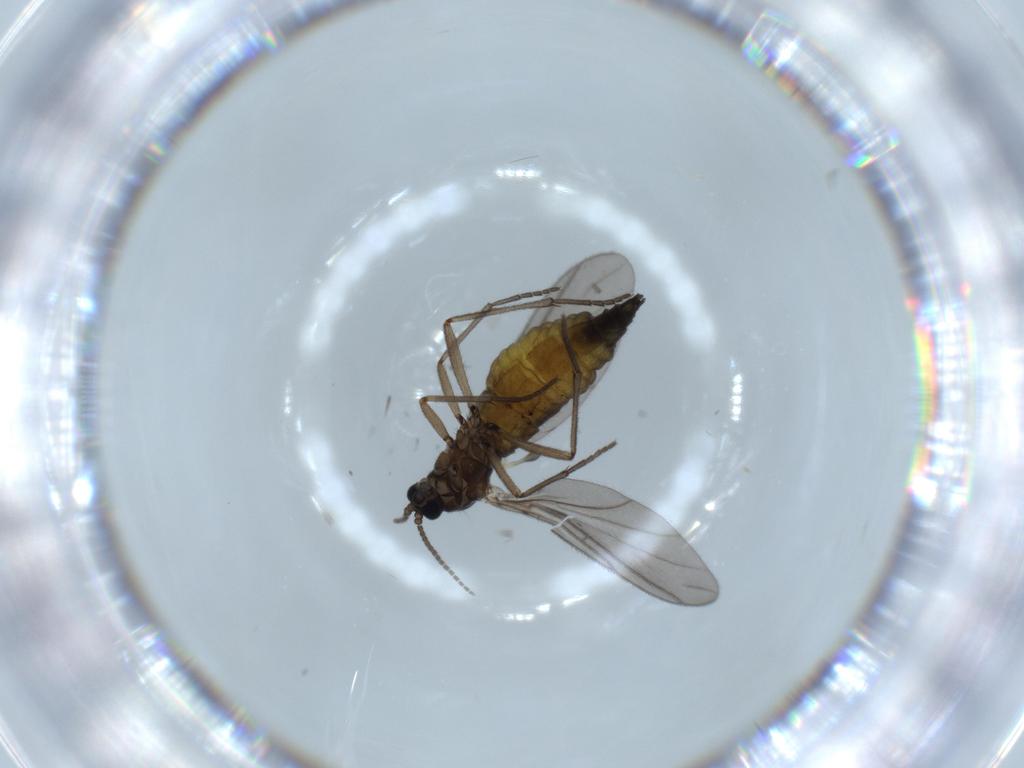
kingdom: Animalia
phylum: Arthropoda
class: Insecta
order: Diptera
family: Sciaridae
